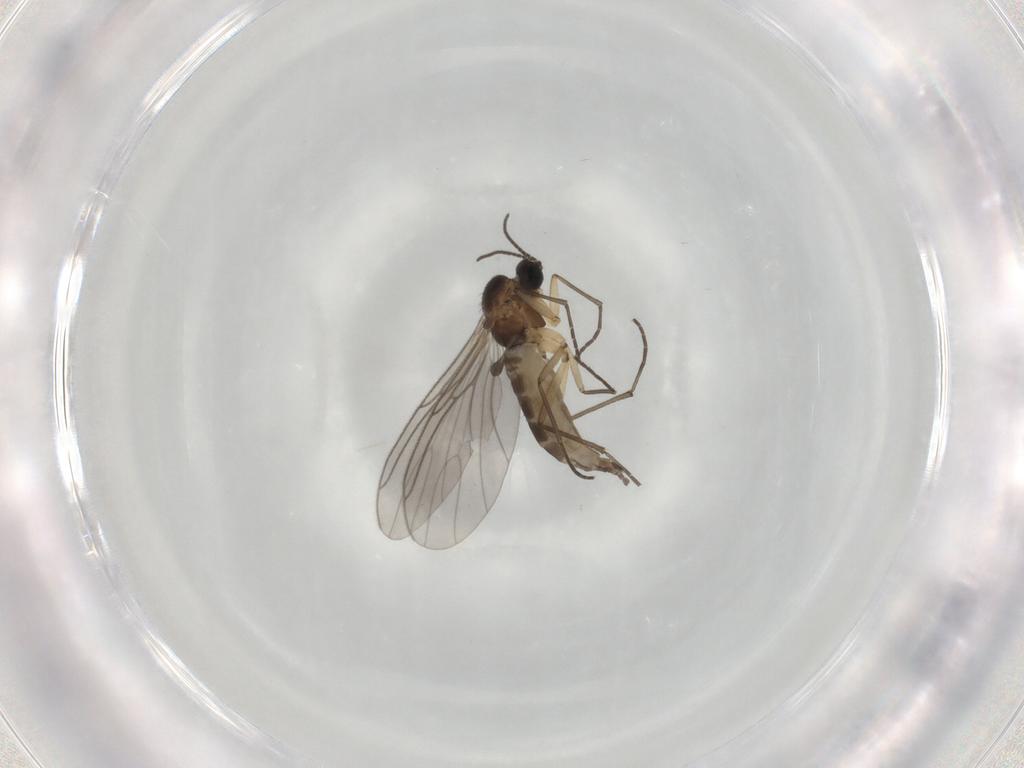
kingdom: Animalia
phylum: Arthropoda
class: Insecta
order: Diptera
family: Sciaridae
